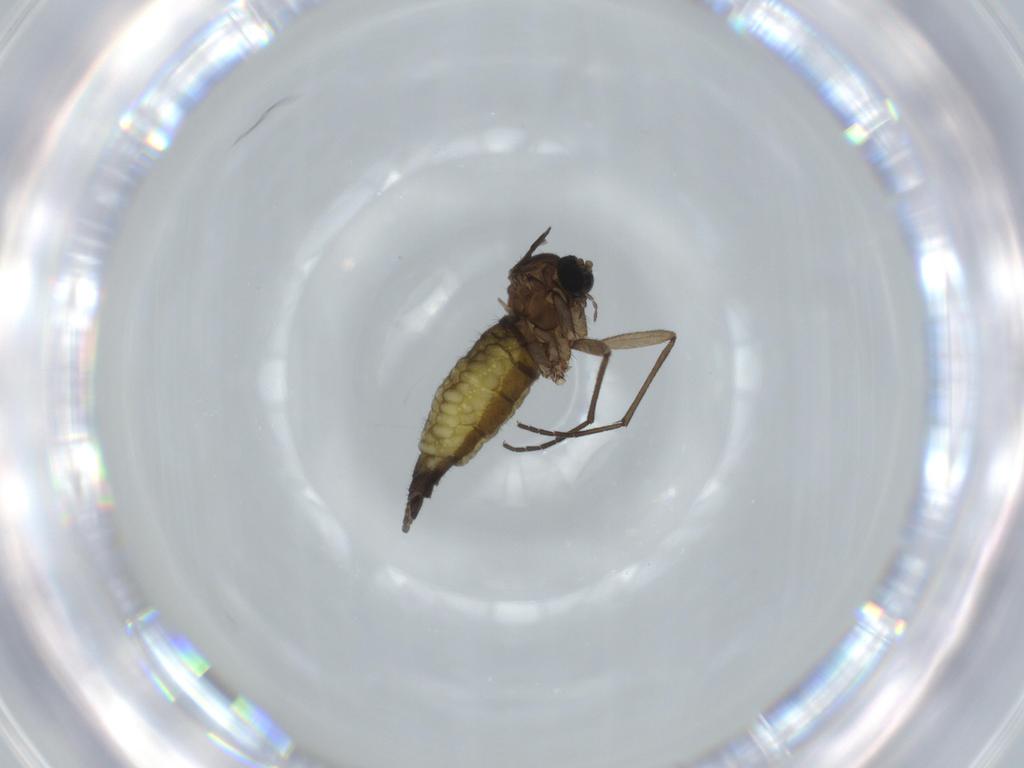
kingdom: Animalia
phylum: Arthropoda
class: Insecta
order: Diptera
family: Sciaridae
